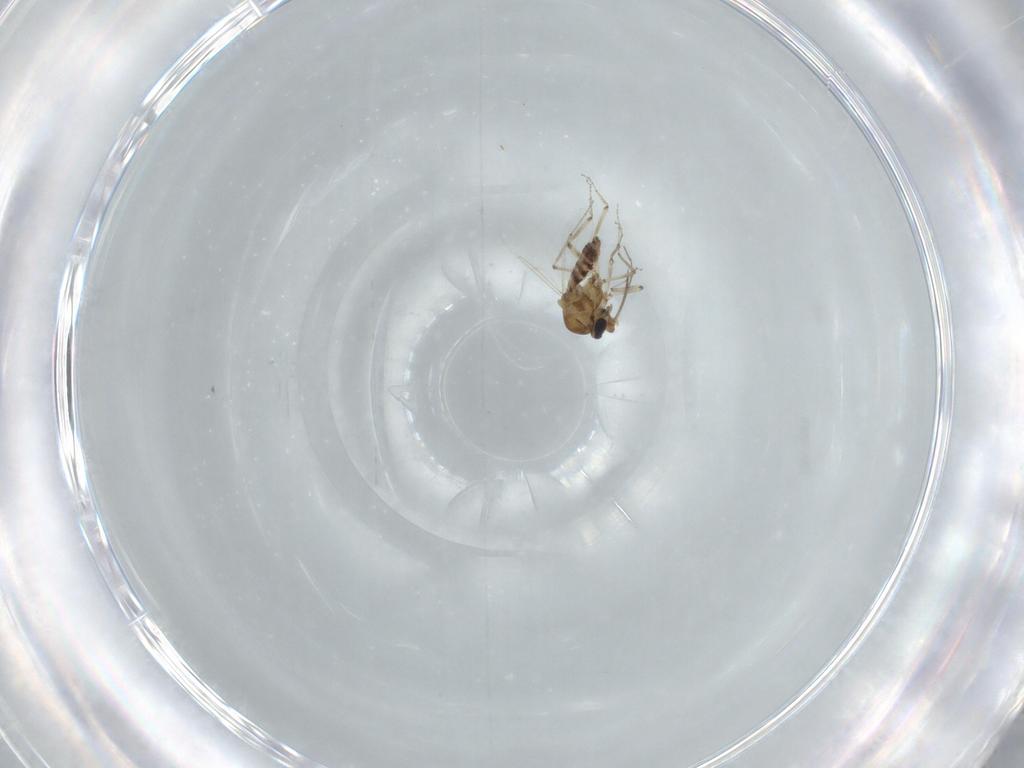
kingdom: Animalia
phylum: Arthropoda
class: Insecta
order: Diptera
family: Ceratopogonidae
